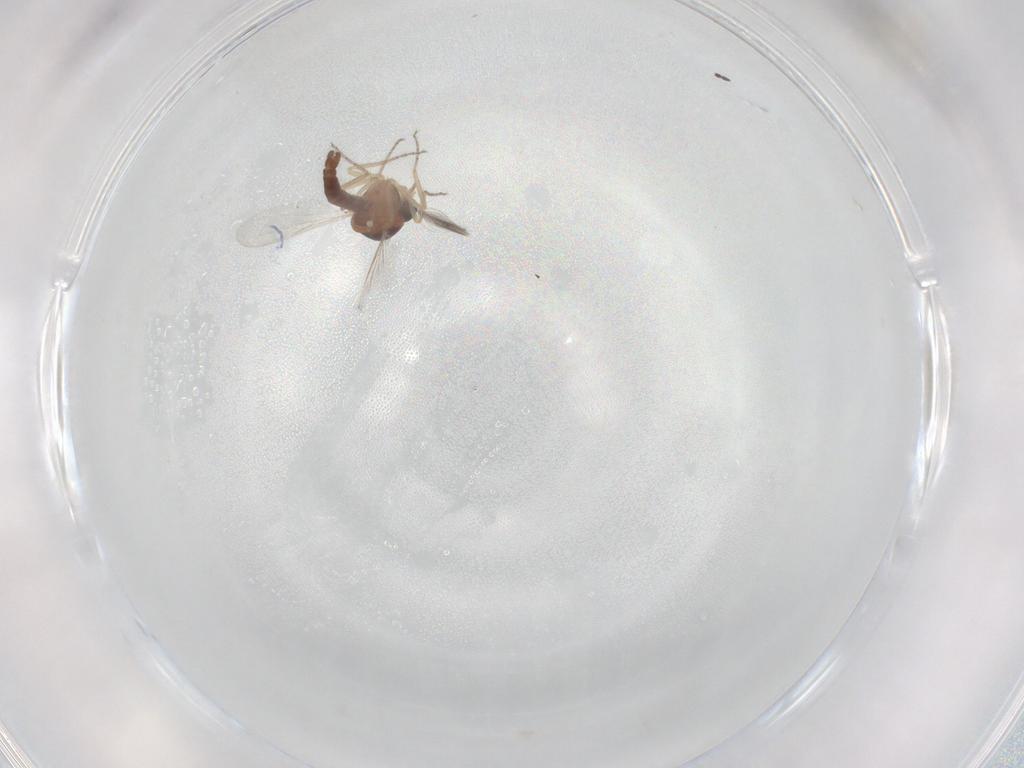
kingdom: Animalia
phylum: Arthropoda
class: Insecta
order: Diptera
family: Ceratopogonidae
